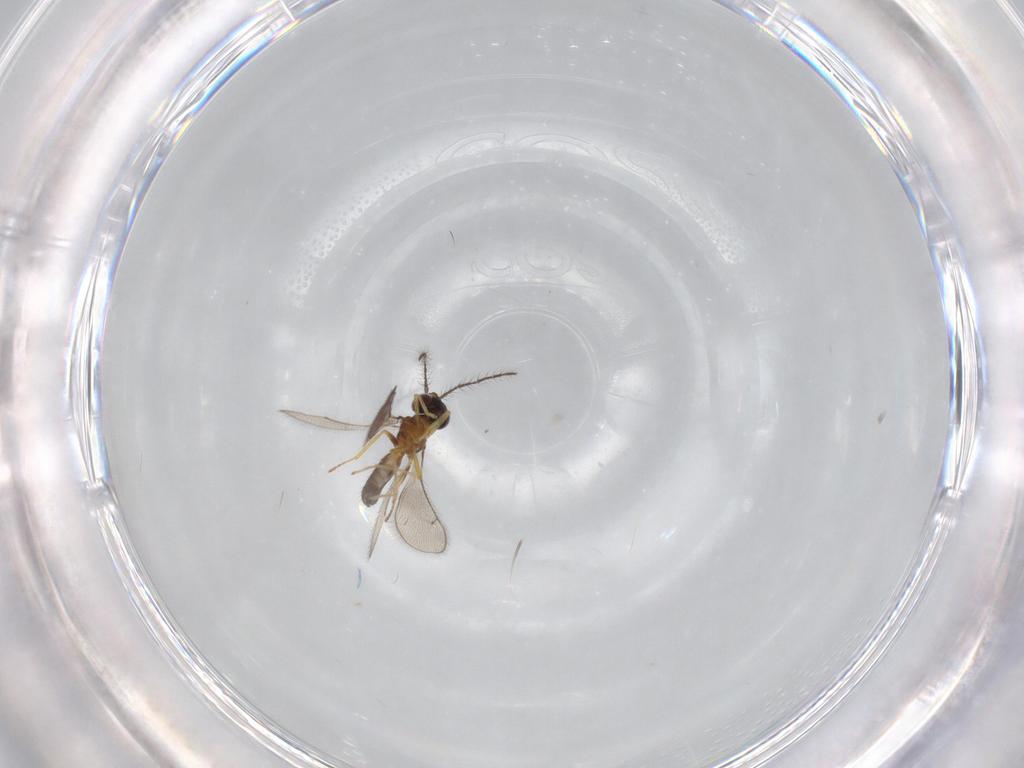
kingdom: Animalia
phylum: Arthropoda
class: Insecta
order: Hymenoptera
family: Eulophidae
